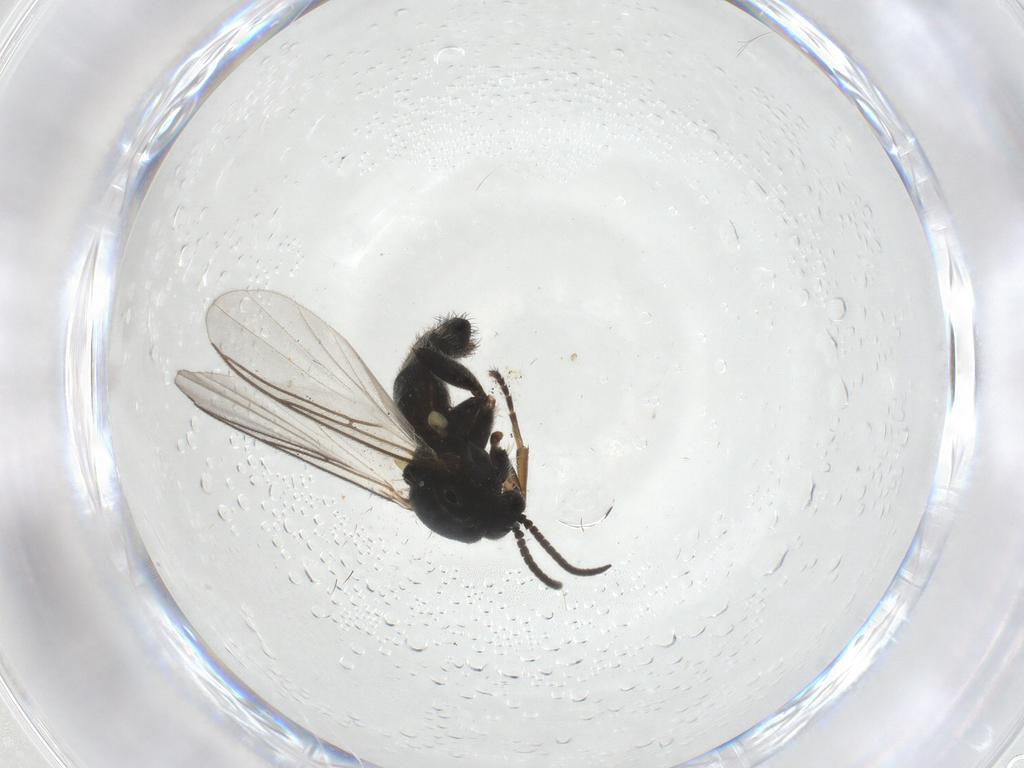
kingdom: Animalia
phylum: Arthropoda
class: Insecta
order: Diptera
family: Mycetophilidae
